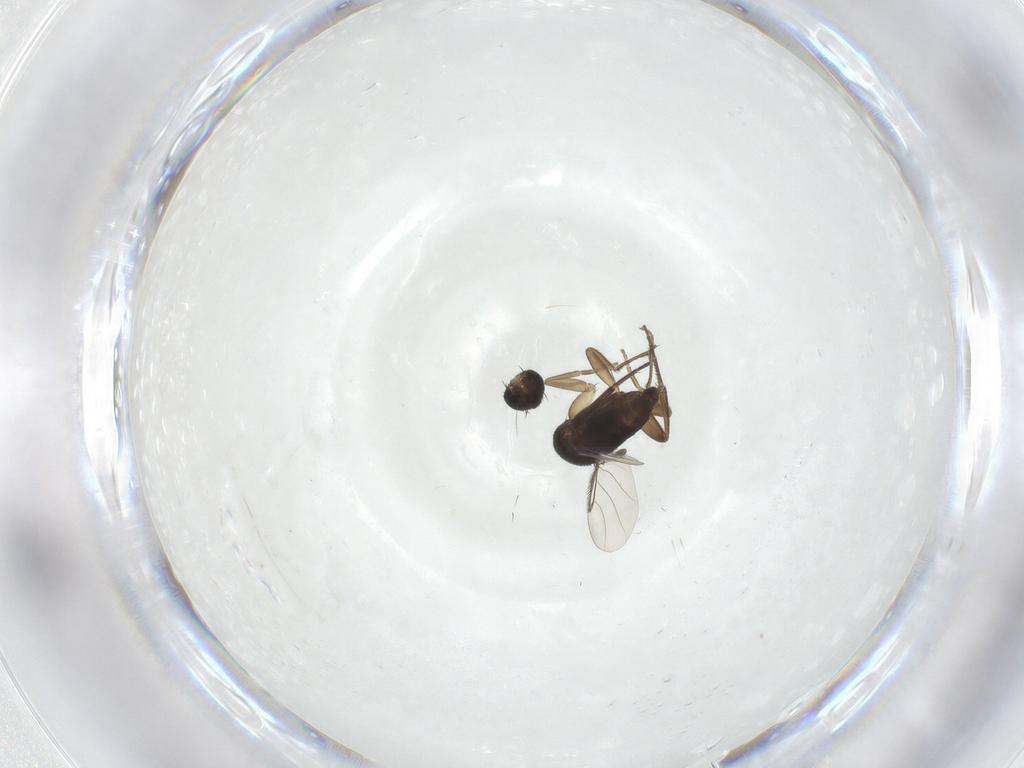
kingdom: Animalia
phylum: Arthropoda
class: Insecta
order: Diptera
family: Phoridae
